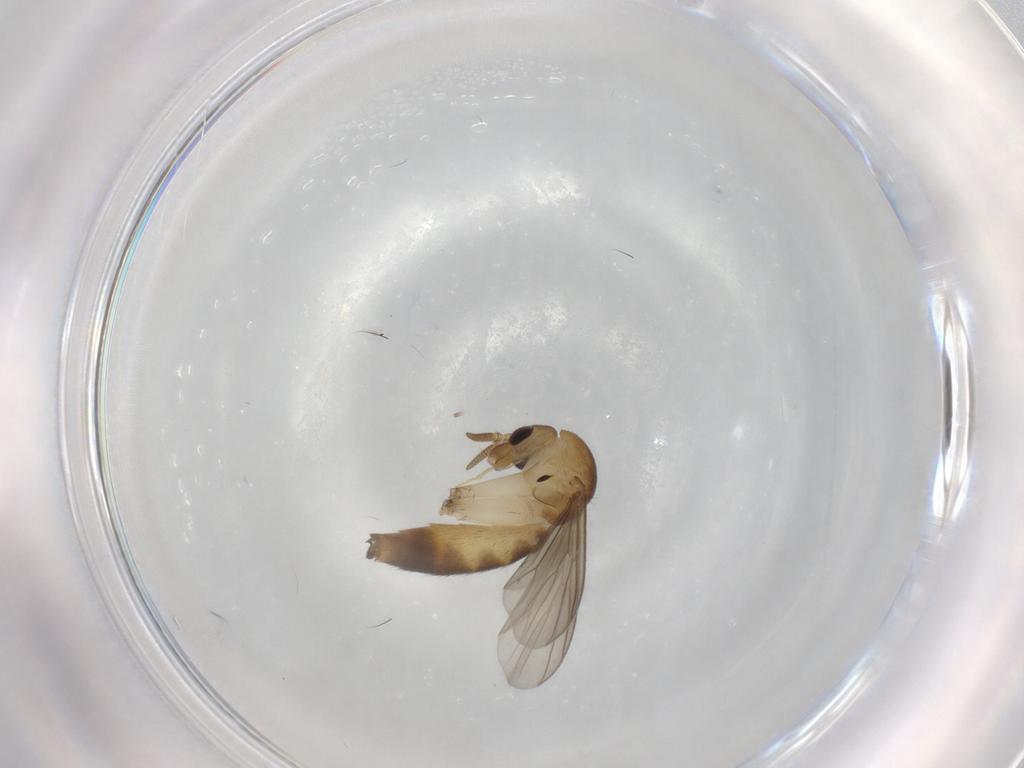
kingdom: Animalia
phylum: Arthropoda
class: Insecta
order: Diptera
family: Mycetophilidae
